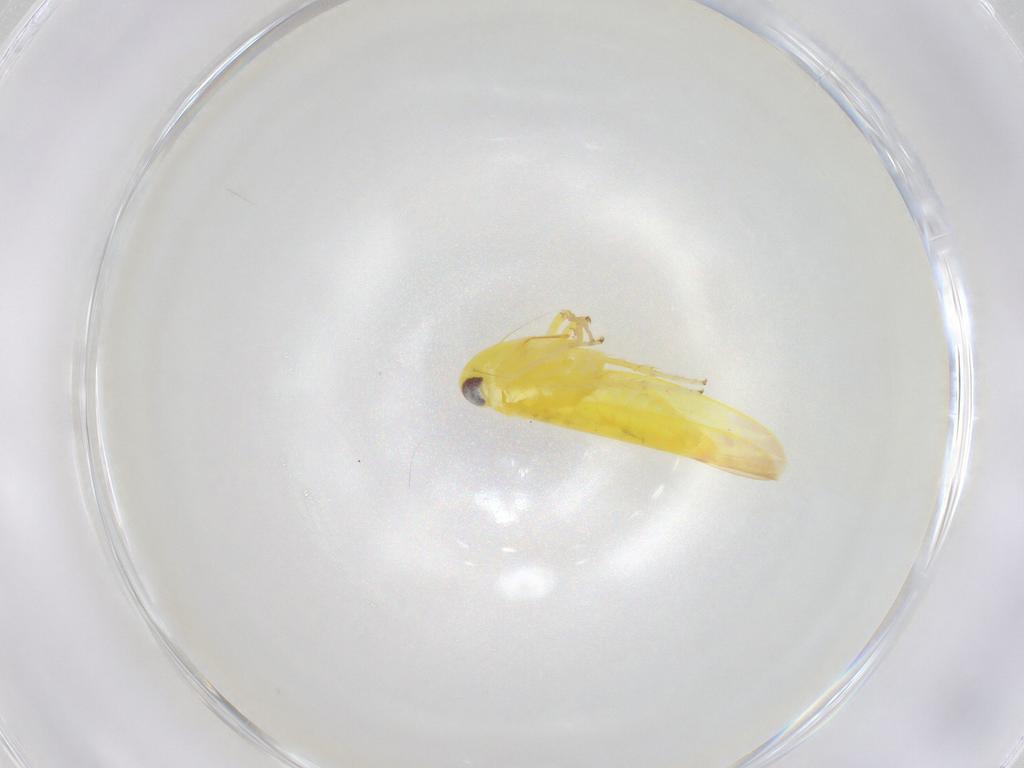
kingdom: Animalia
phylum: Arthropoda
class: Insecta
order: Hemiptera
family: Cicadellidae
